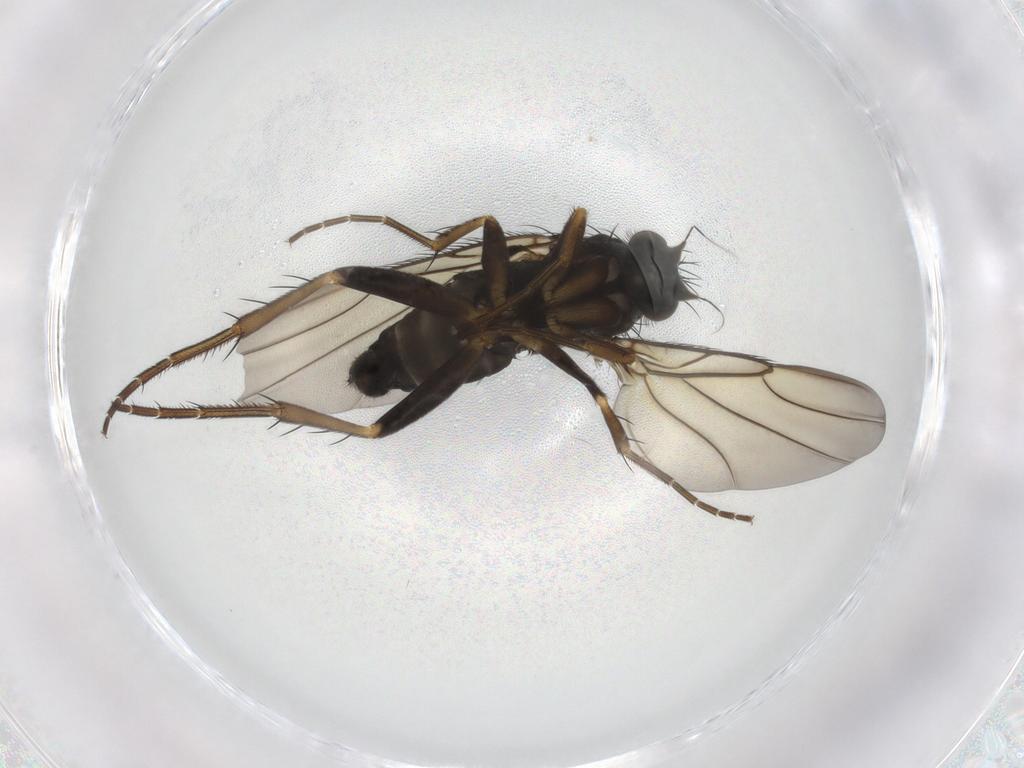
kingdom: Animalia
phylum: Arthropoda
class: Insecta
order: Diptera
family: Phoridae
